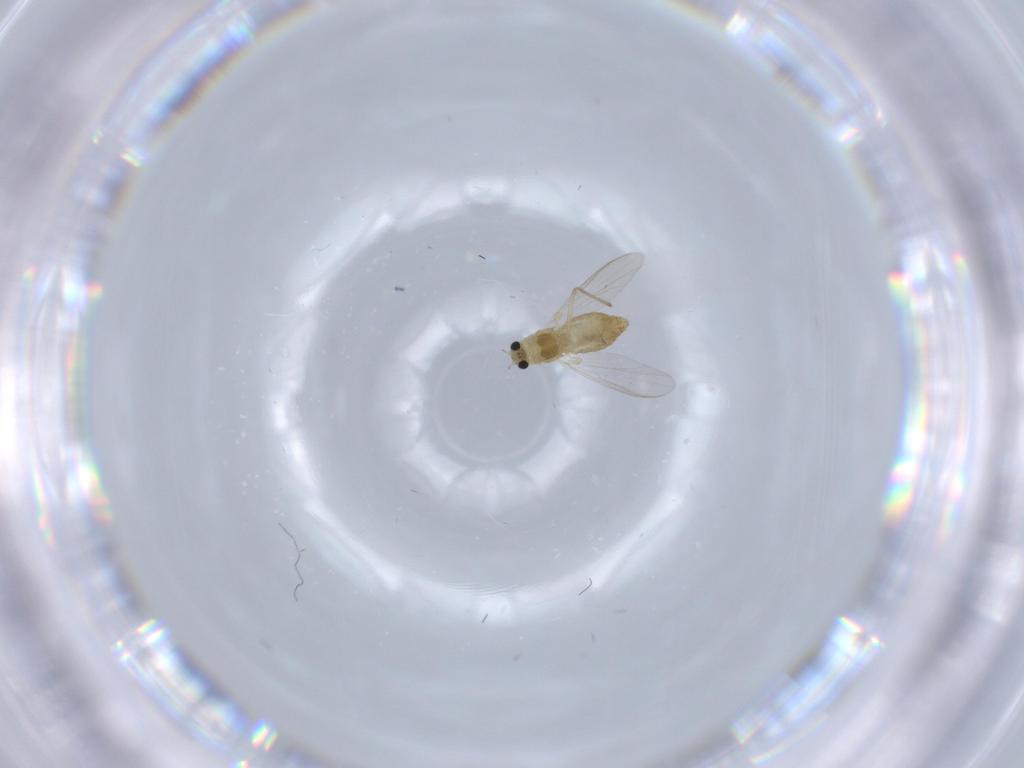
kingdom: Animalia
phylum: Arthropoda
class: Insecta
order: Diptera
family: Chironomidae
